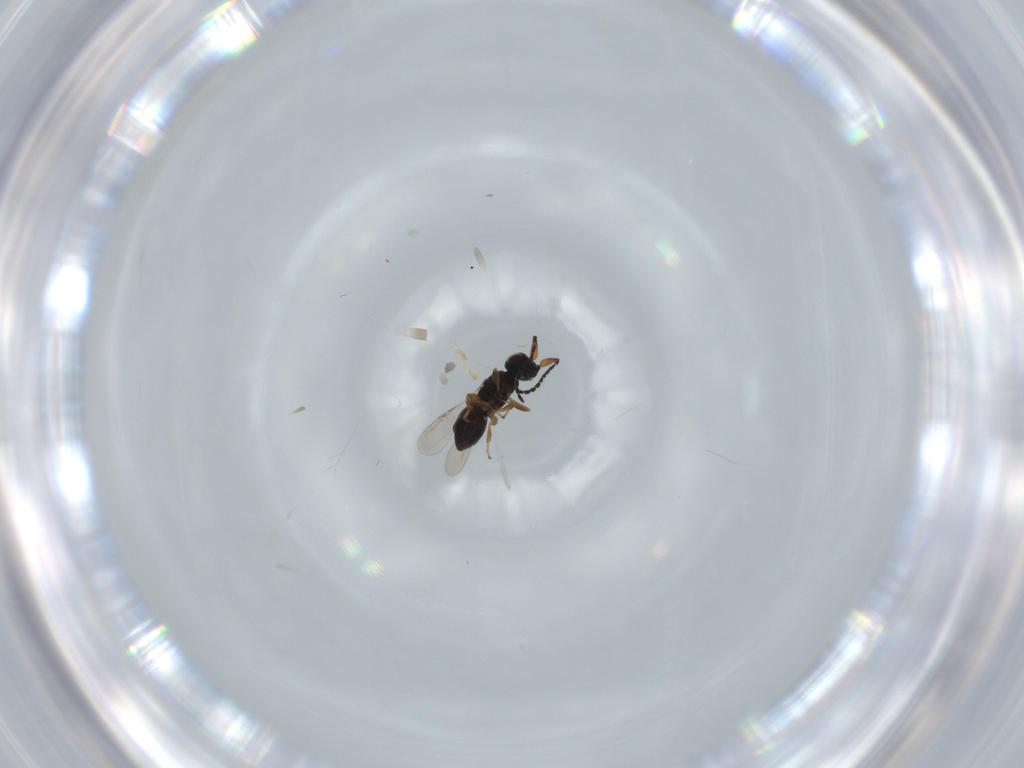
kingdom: Animalia
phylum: Arthropoda
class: Insecta
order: Hymenoptera
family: Ceraphronidae
